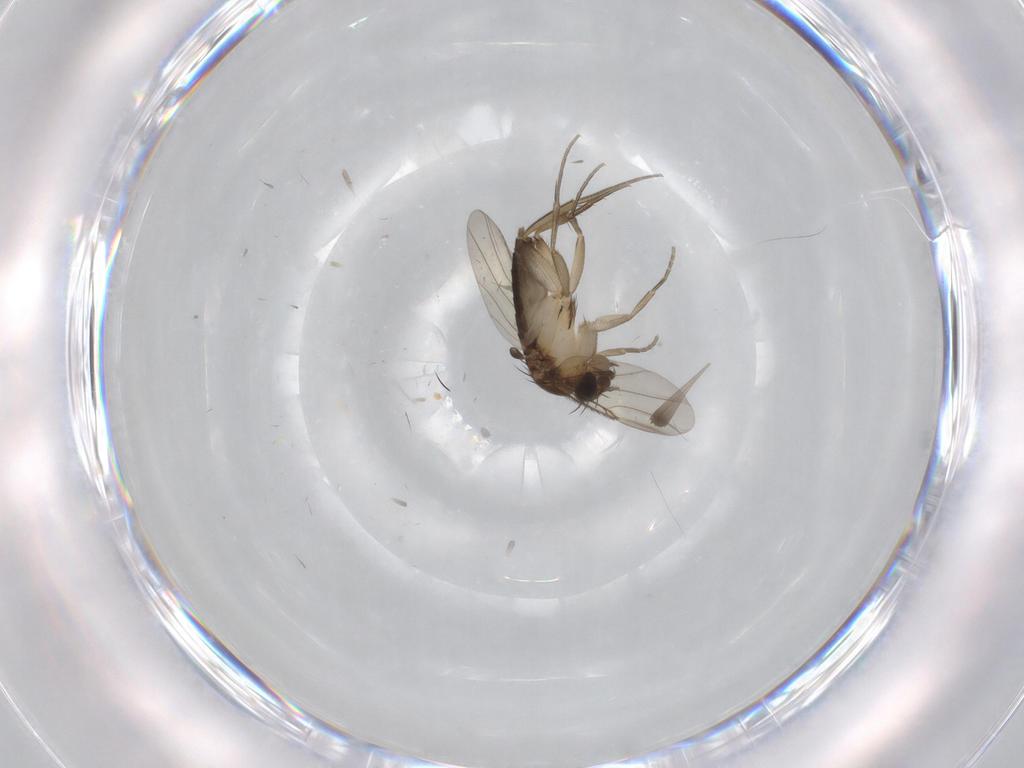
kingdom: Animalia
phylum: Arthropoda
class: Insecta
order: Diptera
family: Phoridae
